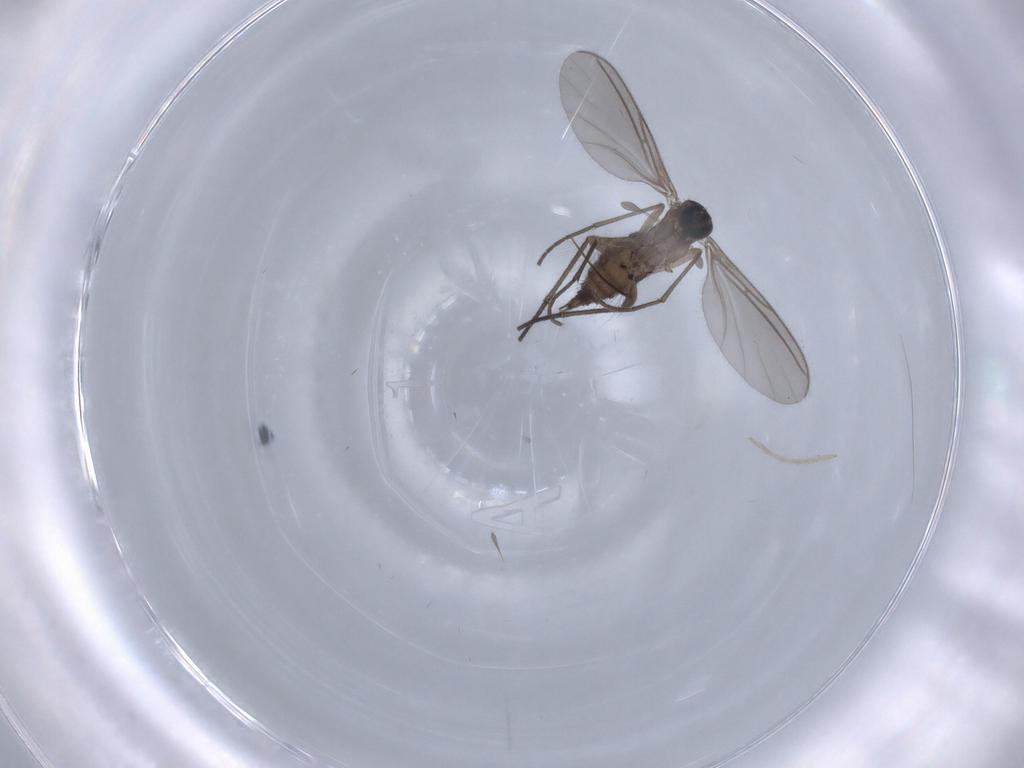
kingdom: Animalia
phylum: Arthropoda
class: Insecta
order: Diptera
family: Sciaridae
